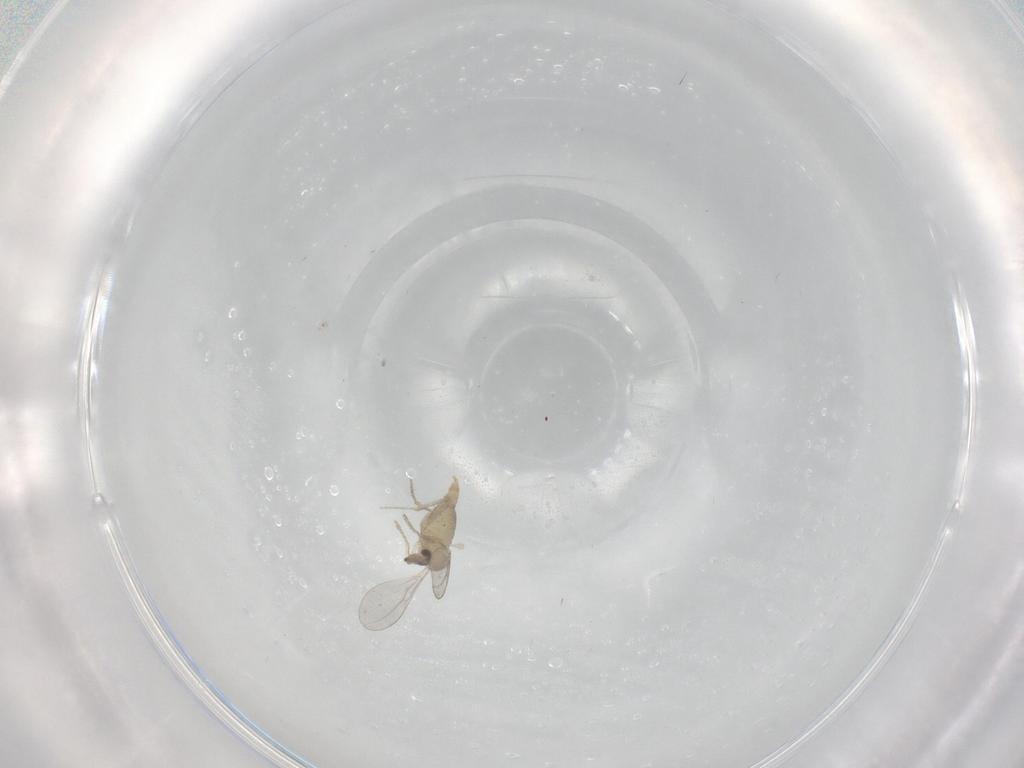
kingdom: Animalia
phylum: Arthropoda
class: Insecta
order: Diptera
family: Cecidomyiidae
